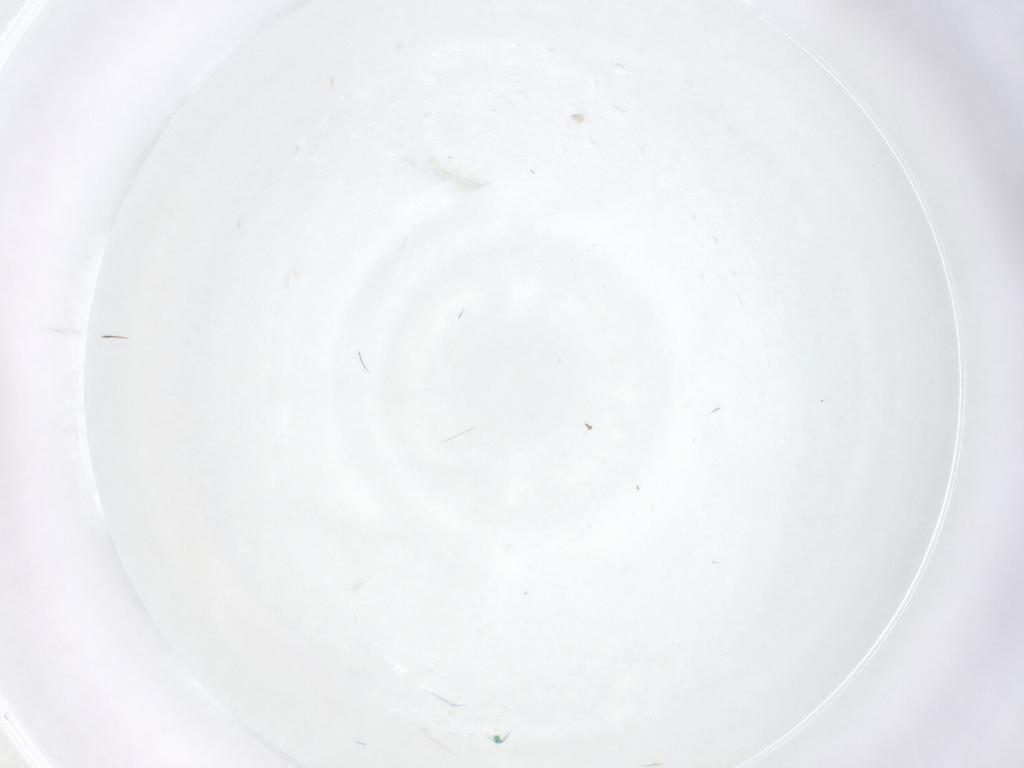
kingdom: Animalia
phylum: Arthropoda
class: Insecta
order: Diptera
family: Tabanidae
